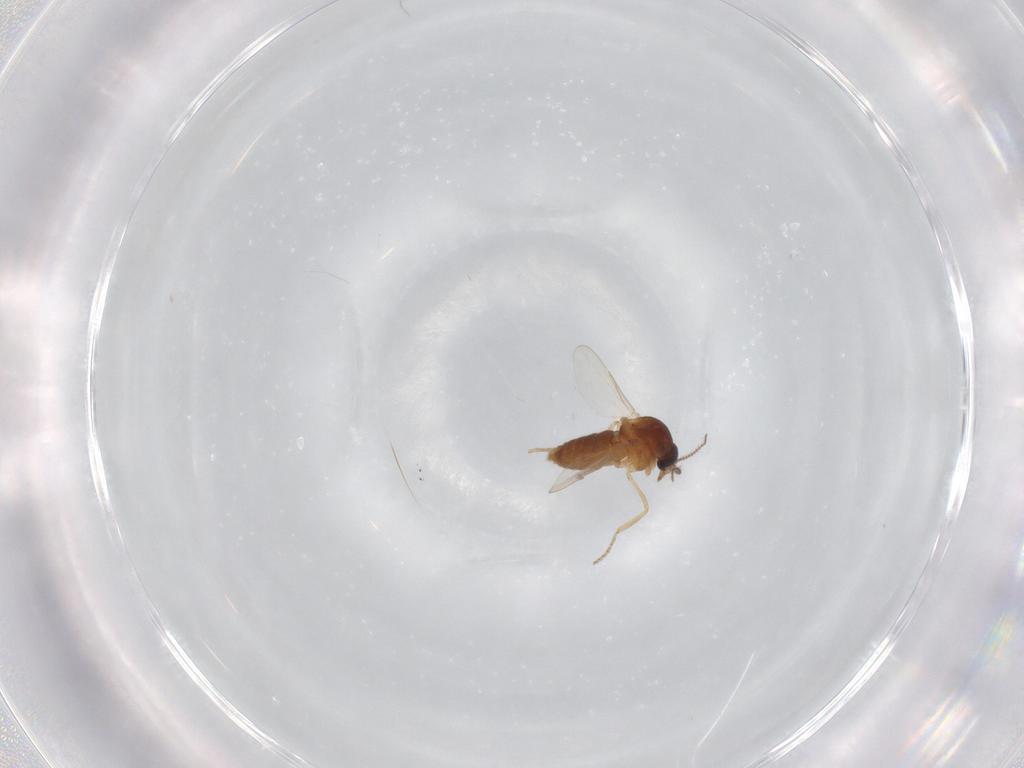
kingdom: Animalia
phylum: Arthropoda
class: Insecta
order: Diptera
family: Ceratopogonidae
